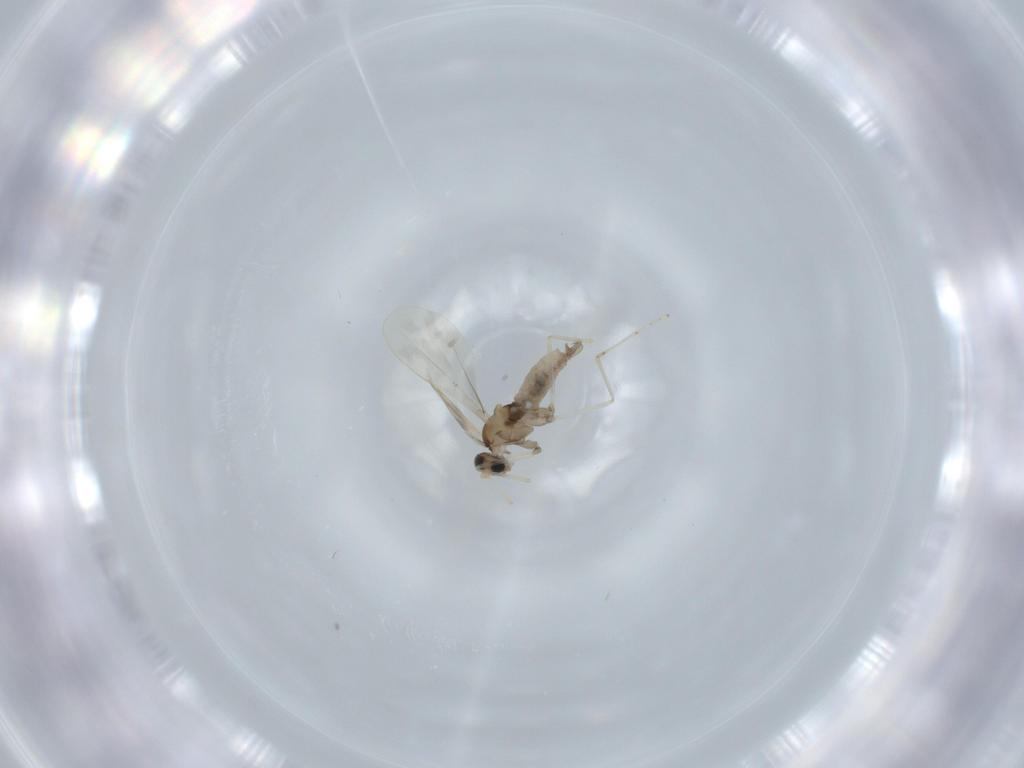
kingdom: Animalia
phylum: Arthropoda
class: Insecta
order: Diptera
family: Cecidomyiidae
